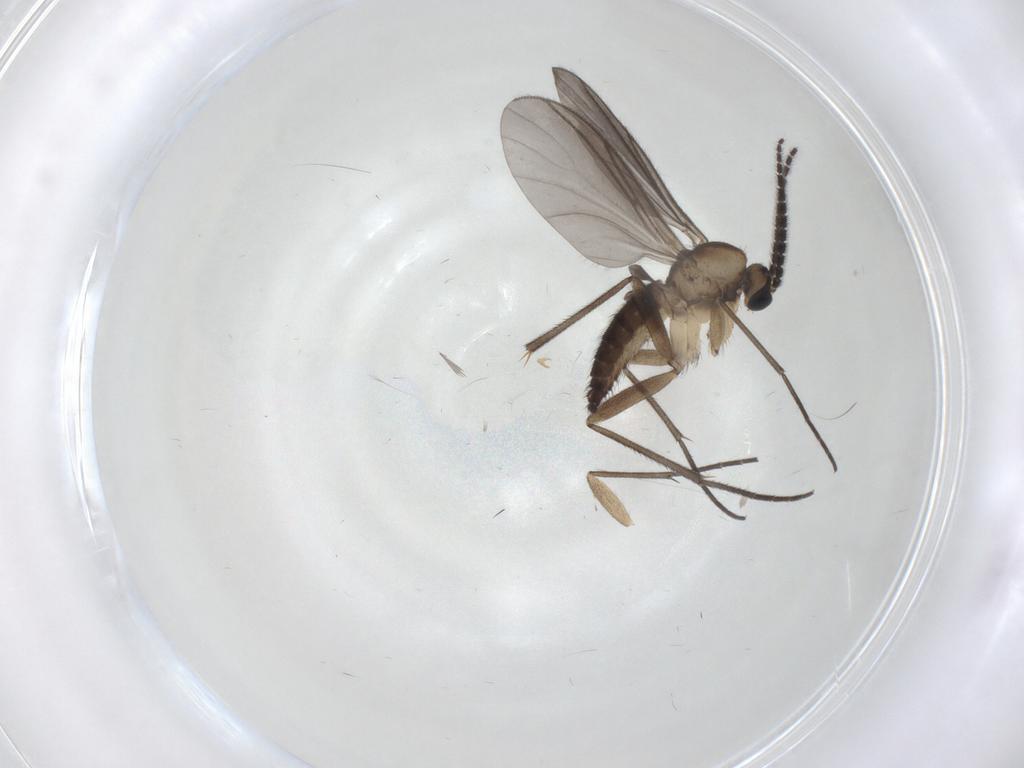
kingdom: Animalia
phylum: Arthropoda
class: Insecta
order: Diptera
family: Sciaridae
